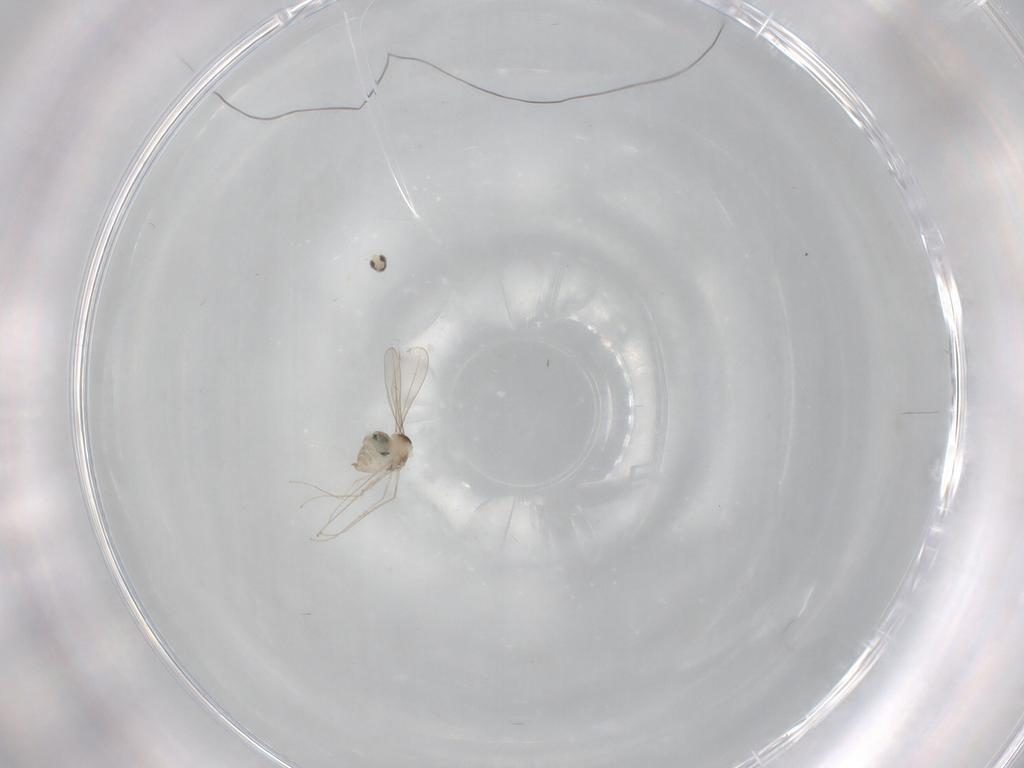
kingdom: Animalia
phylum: Arthropoda
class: Insecta
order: Diptera
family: Cecidomyiidae
